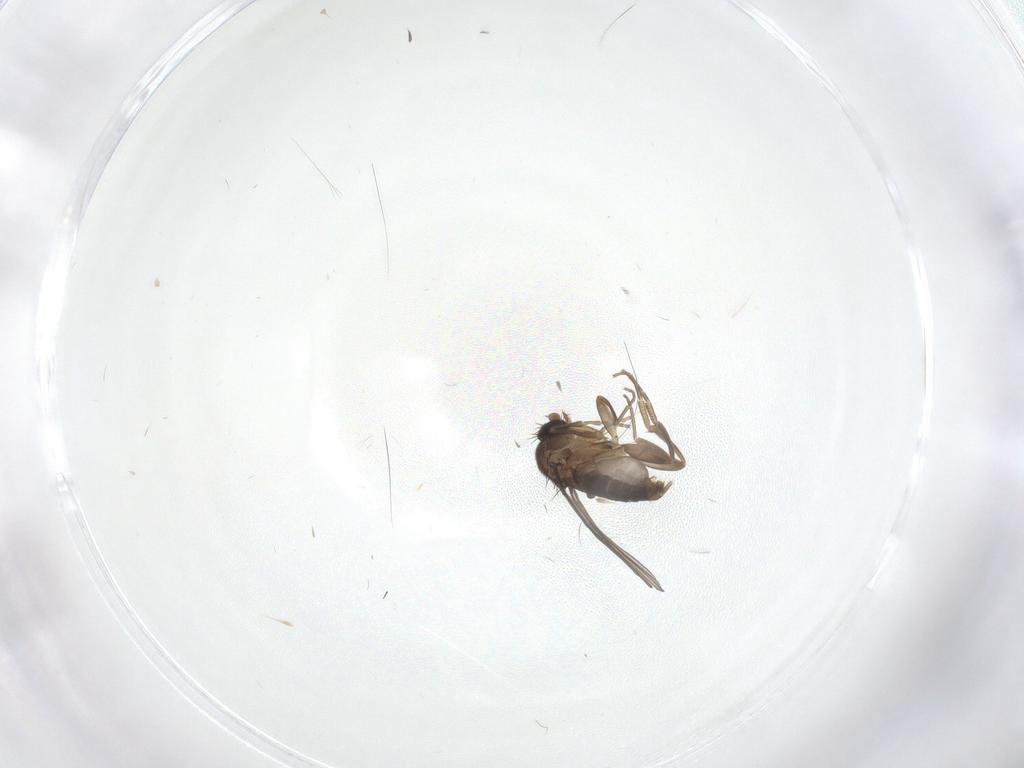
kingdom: Animalia
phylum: Arthropoda
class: Insecta
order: Diptera
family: Phoridae
